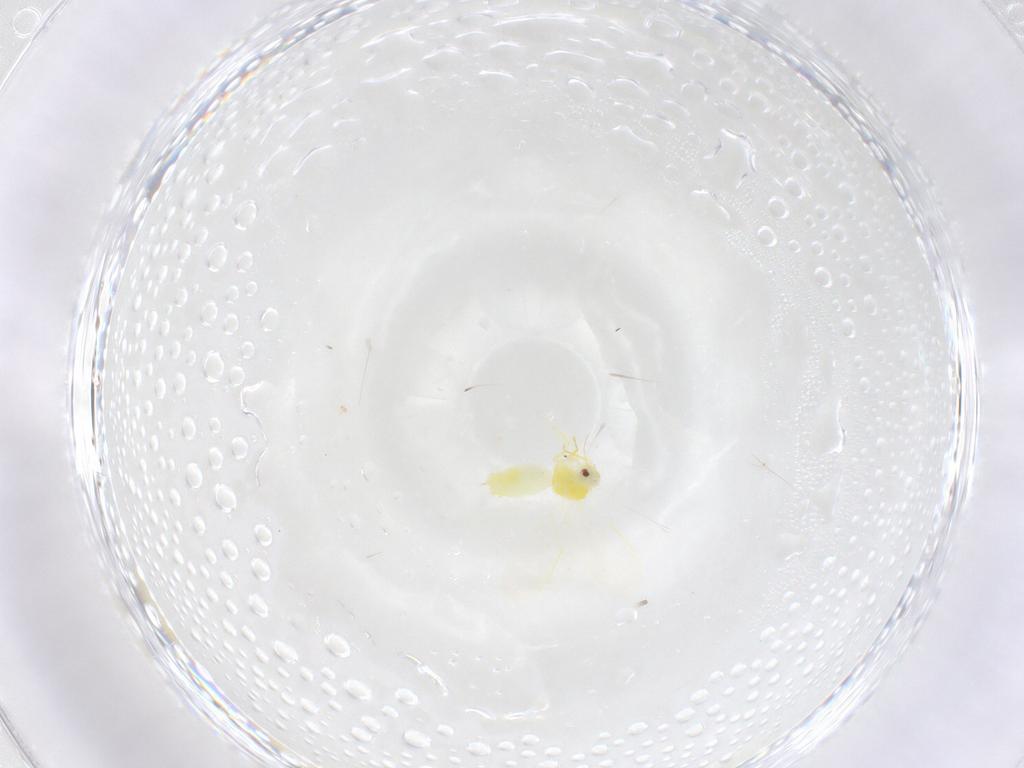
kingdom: Animalia
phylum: Arthropoda
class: Insecta
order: Hemiptera
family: Aleyrodidae
